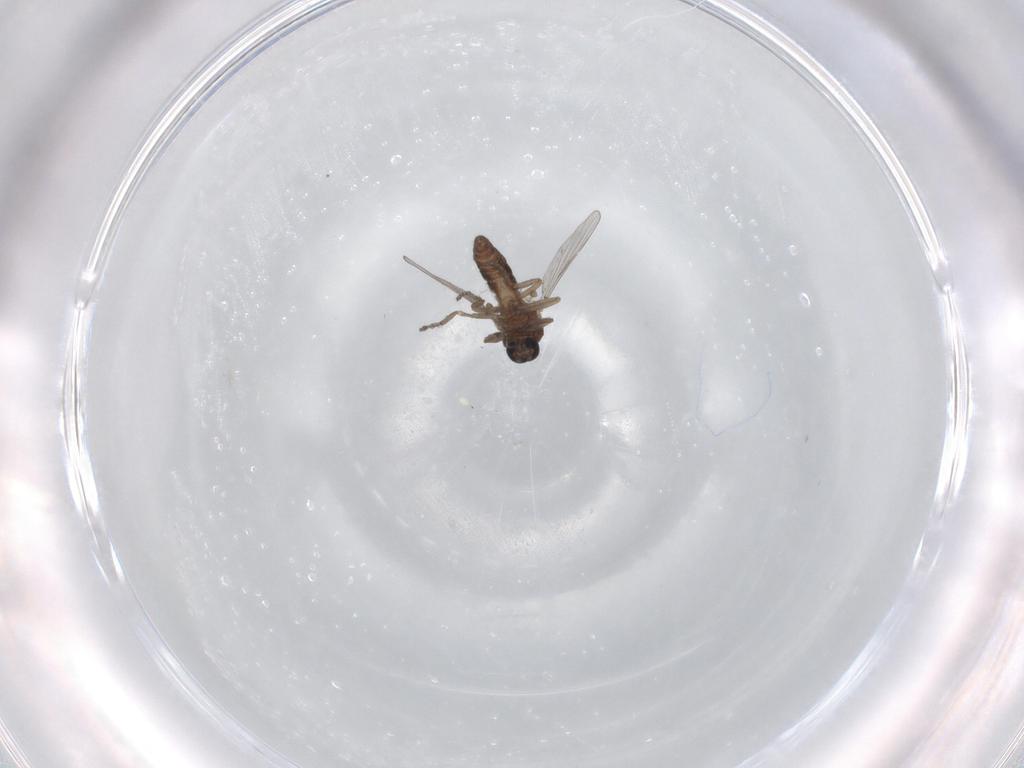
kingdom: Animalia
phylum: Arthropoda
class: Insecta
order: Diptera
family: Ceratopogonidae
